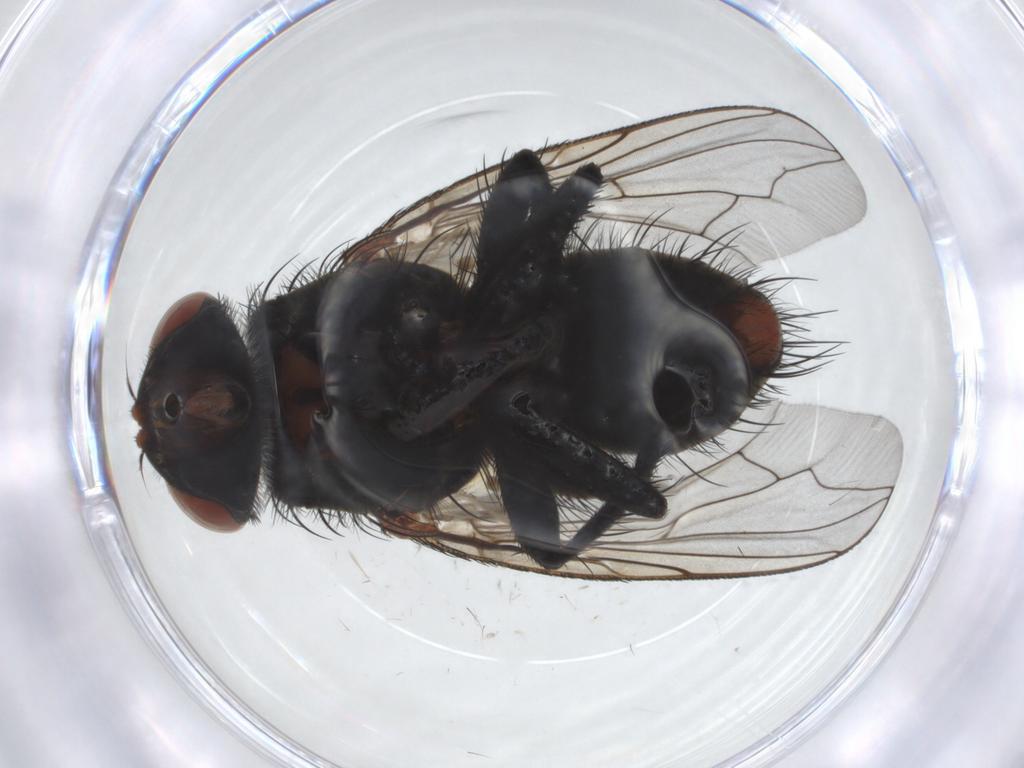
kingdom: Animalia
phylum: Arthropoda
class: Insecta
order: Diptera
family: Sarcophagidae
